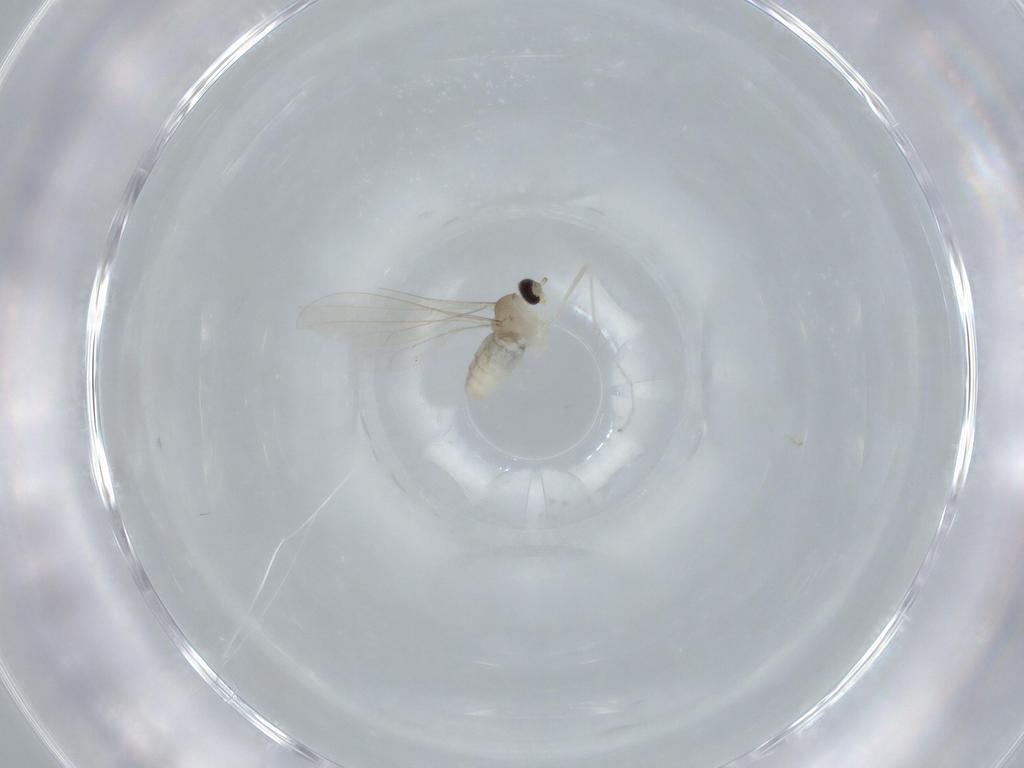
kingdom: Animalia
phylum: Arthropoda
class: Insecta
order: Diptera
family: Cecidomyiidae
